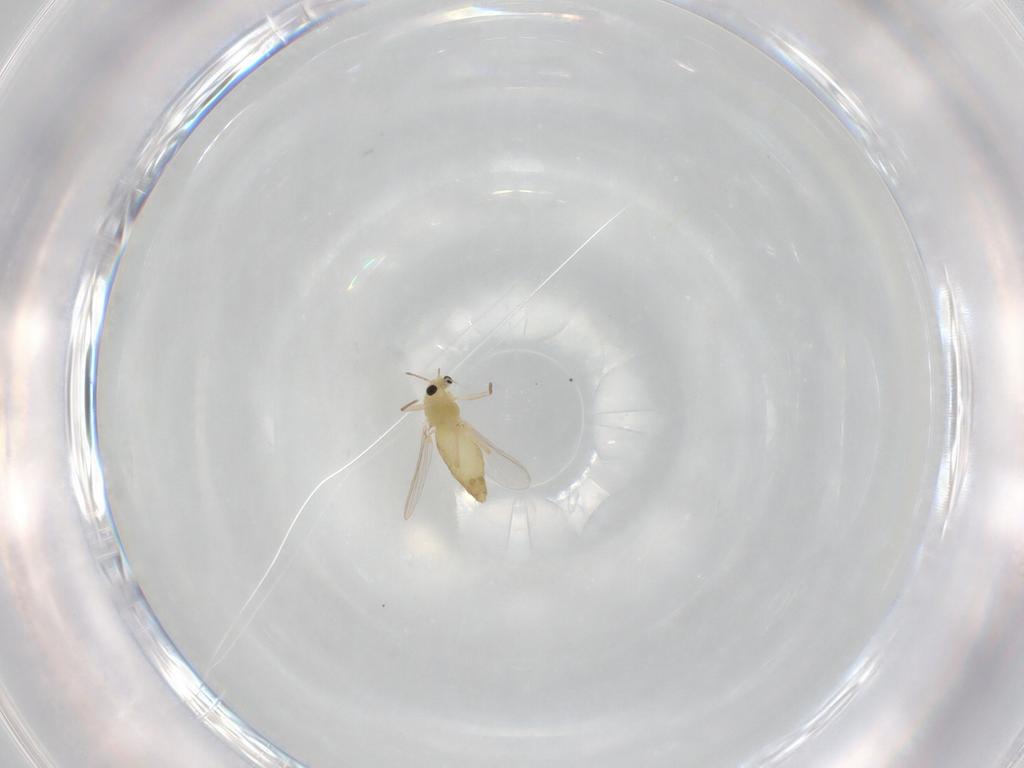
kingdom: Animalia
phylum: Arthropoda
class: Insecta
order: Diptera
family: Chironomidae
